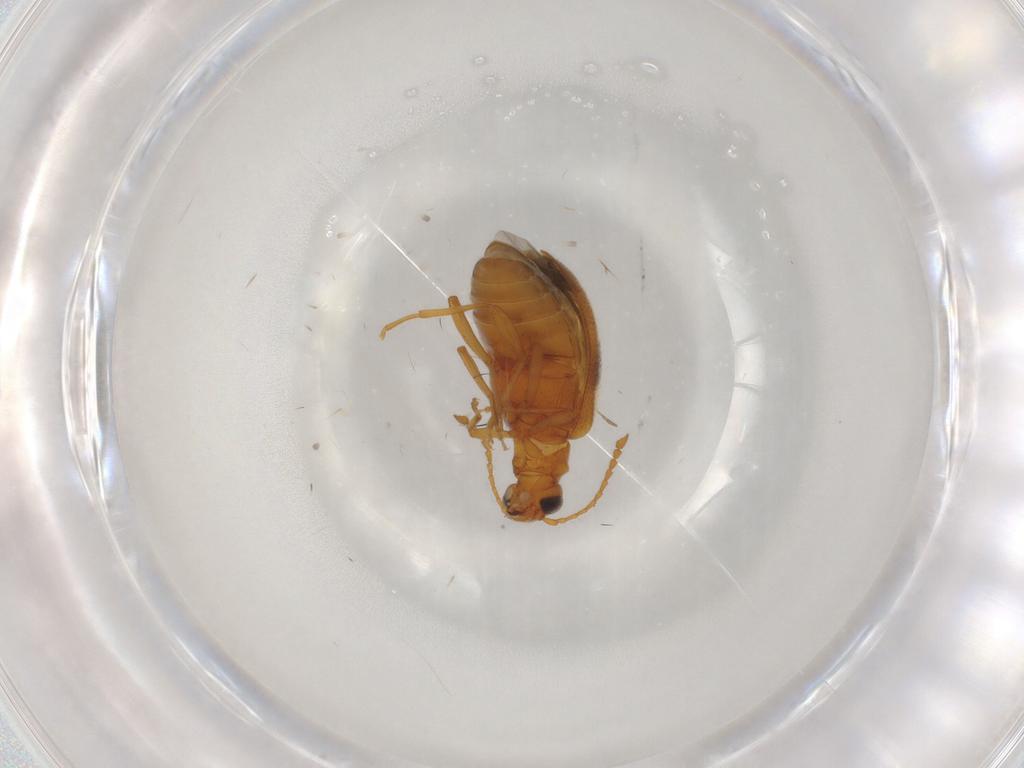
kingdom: Animalia
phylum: Arthropoda
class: Insecta
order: Coleoptera
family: Aderidae
